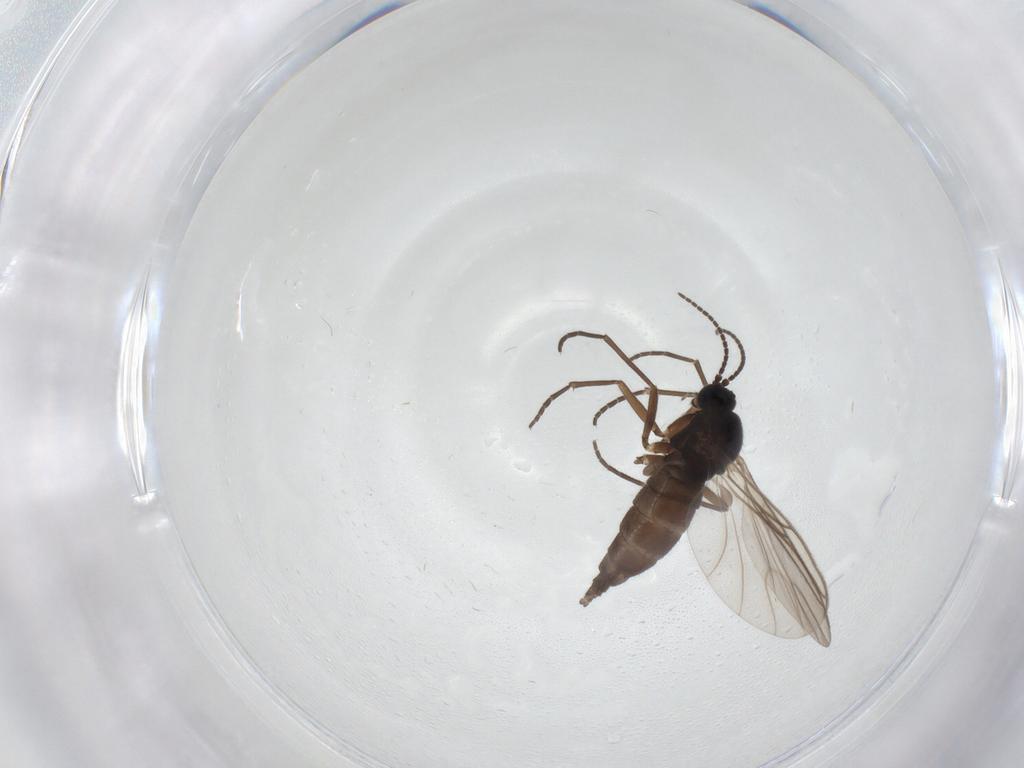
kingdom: Animalia
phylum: Arthropoda
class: Insecta
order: Diptera
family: Sciaridae
